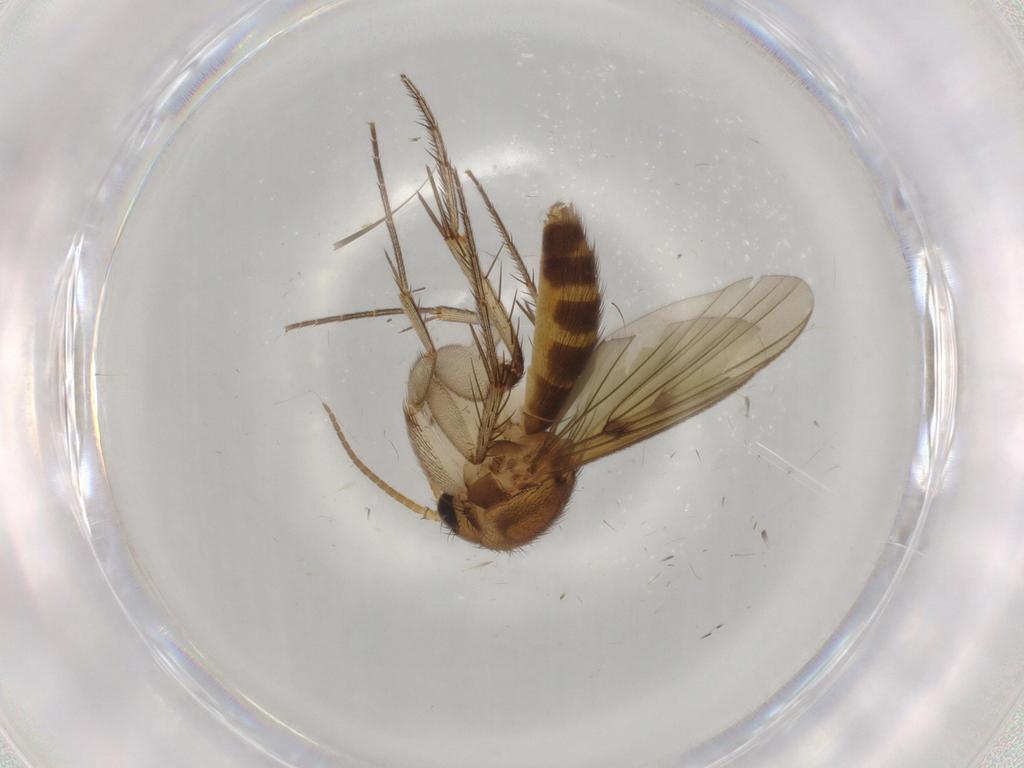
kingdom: Animalia
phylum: Arthropoda
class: Insecta
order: Diptera
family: Mycetophilidae
